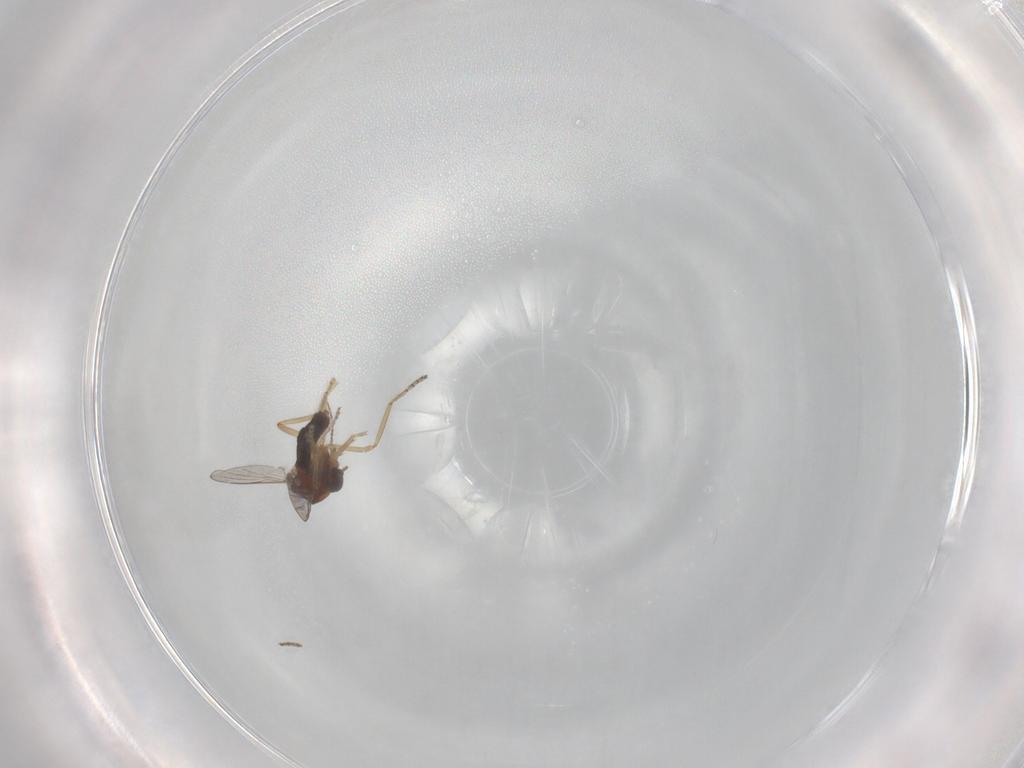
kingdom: Animalia
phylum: Arthropoda
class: Insecta
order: Diptera
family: Ceratopogonidae
